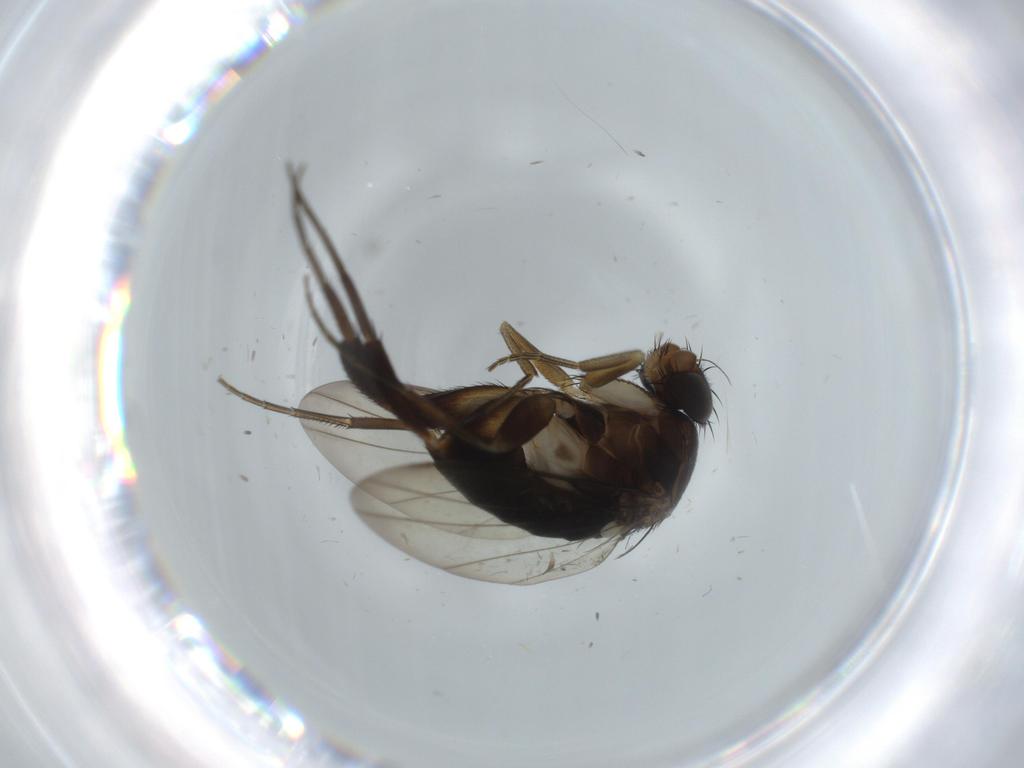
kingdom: Animalia
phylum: Arthropoda
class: Insecta
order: Diptera
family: Phoridae
